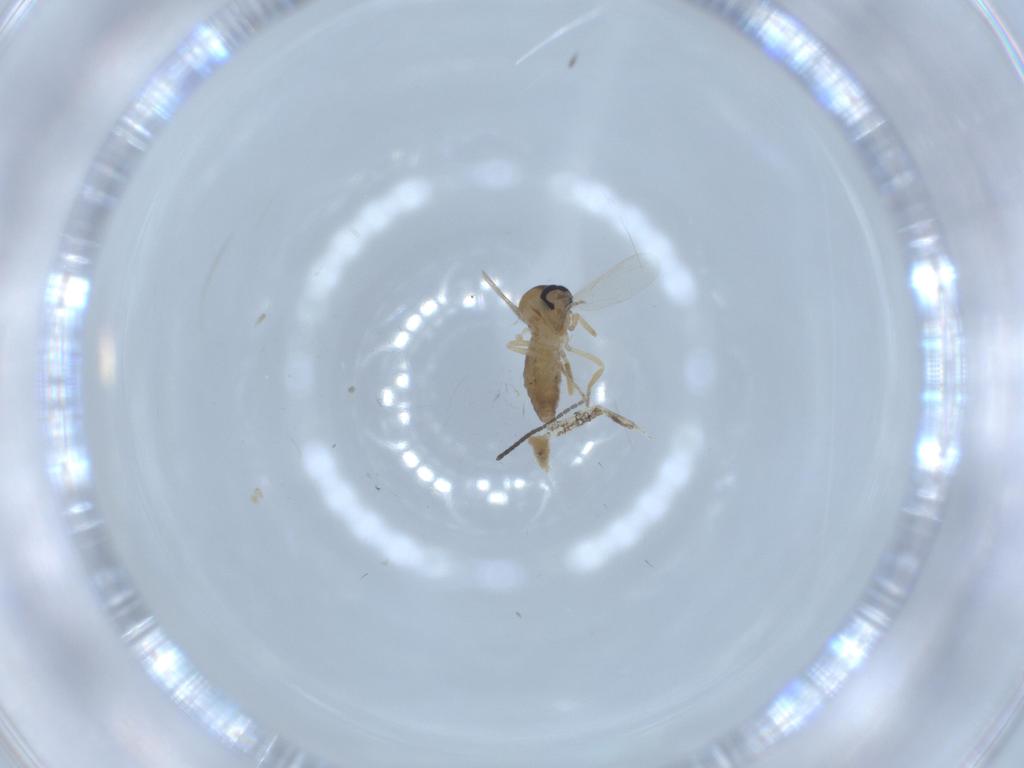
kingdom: Animalia
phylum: Arthropoda
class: Insecta
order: Diptera
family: Ceratopogonidae
